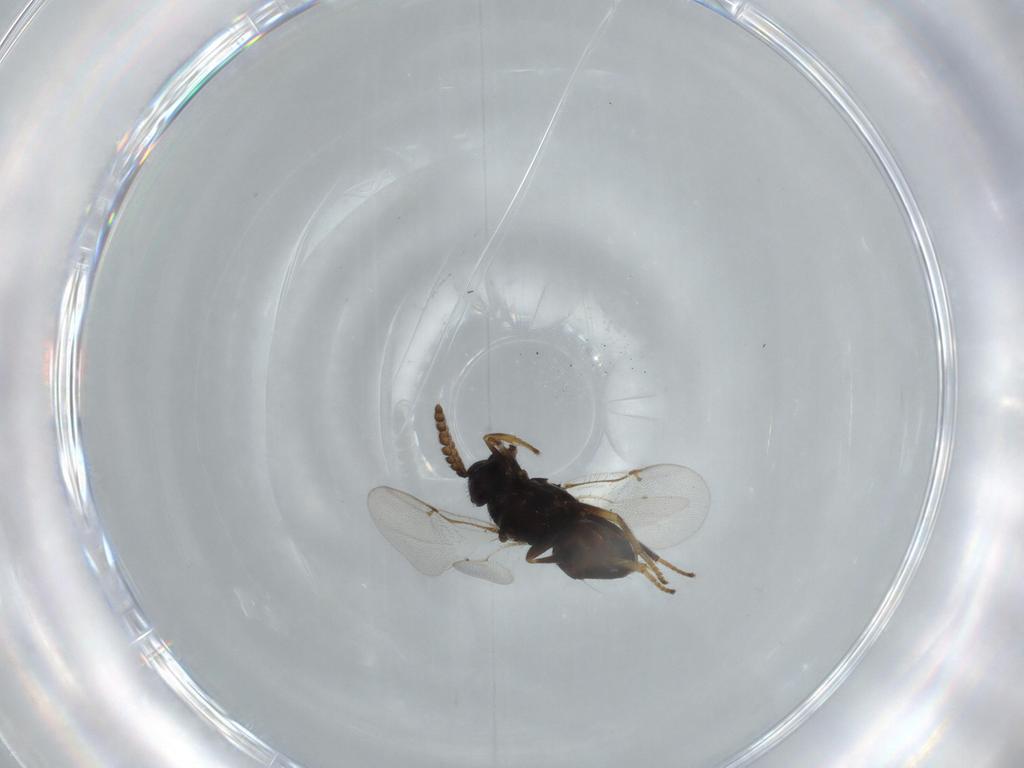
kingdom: Animalia
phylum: Arthropoda
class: Insecta
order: Hymenoptera
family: Encyrtidae
